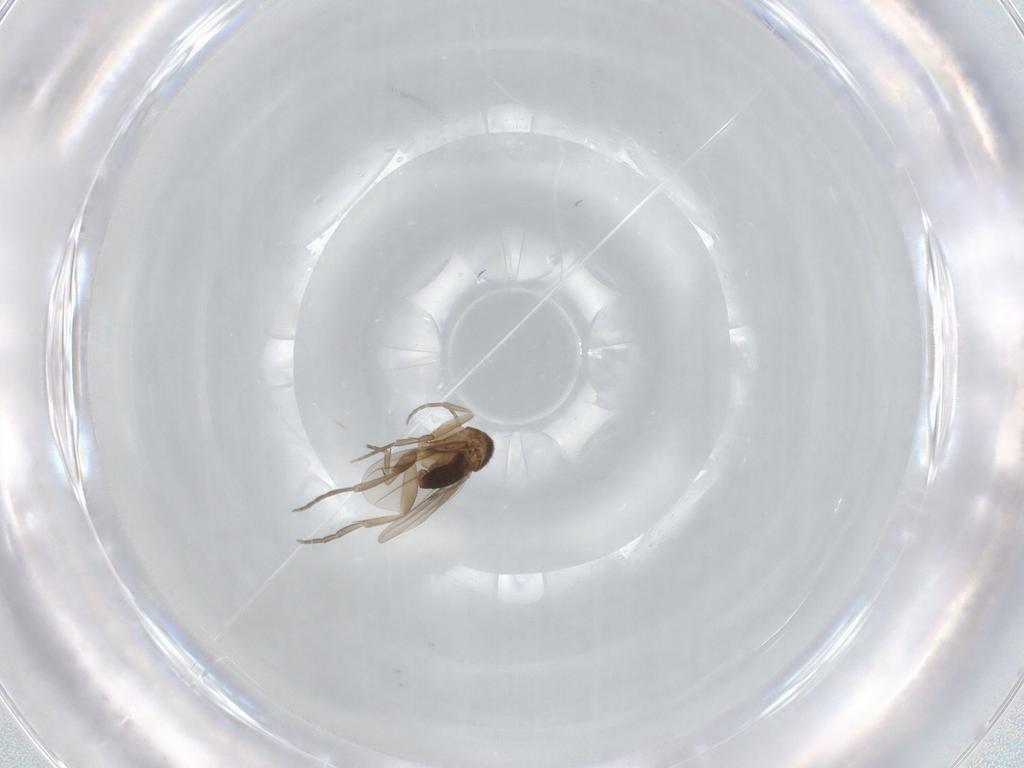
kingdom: Animalia
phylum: Arthropoda
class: Insecta
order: Diptera
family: Phoridae
